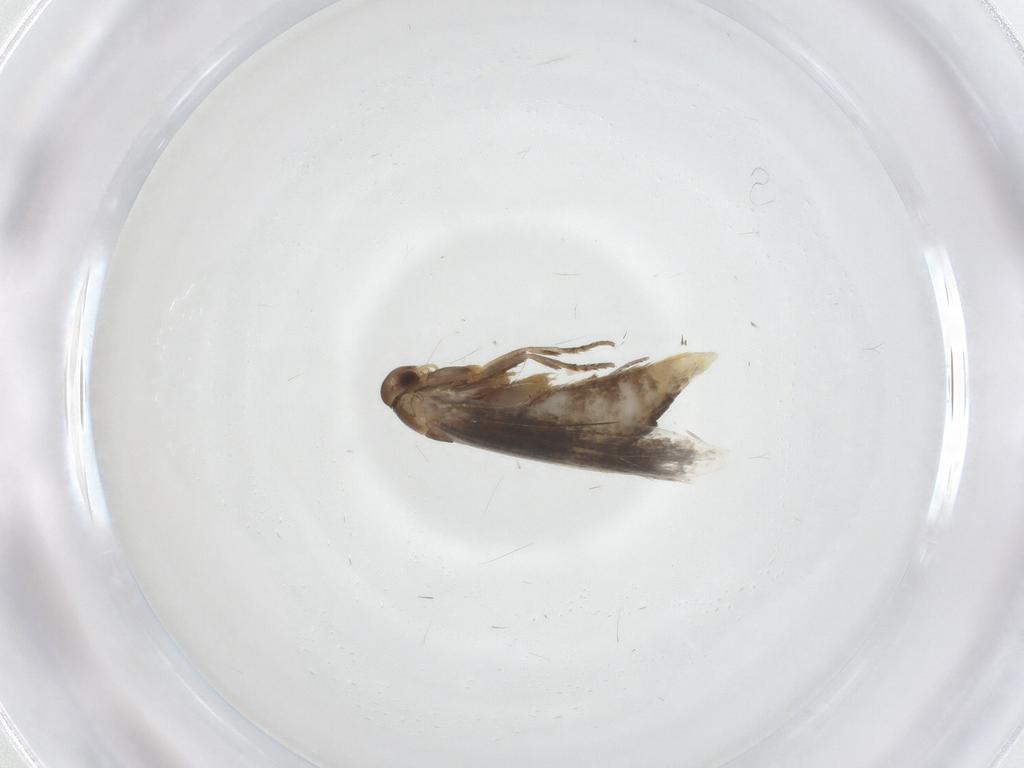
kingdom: Animalia
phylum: Arthropoda
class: Insecta
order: Lepidoptera
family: Elachistidae
